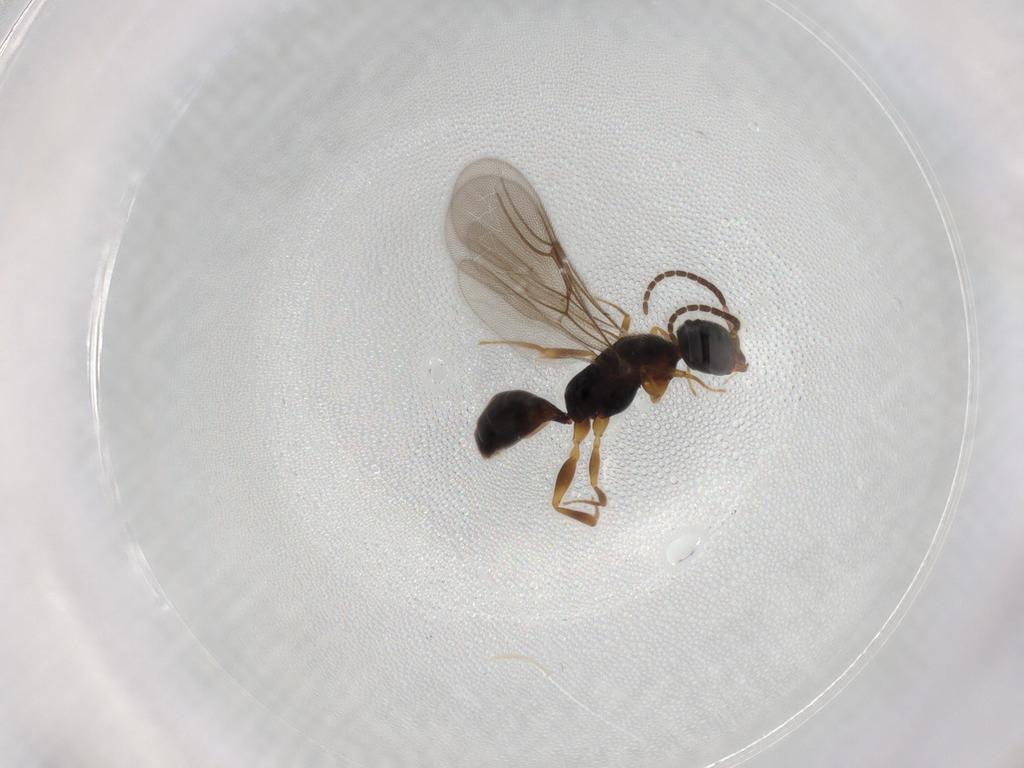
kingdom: Animalia
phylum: Arthropoda
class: Insecta
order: Hymenoptera
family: Bethylidae
